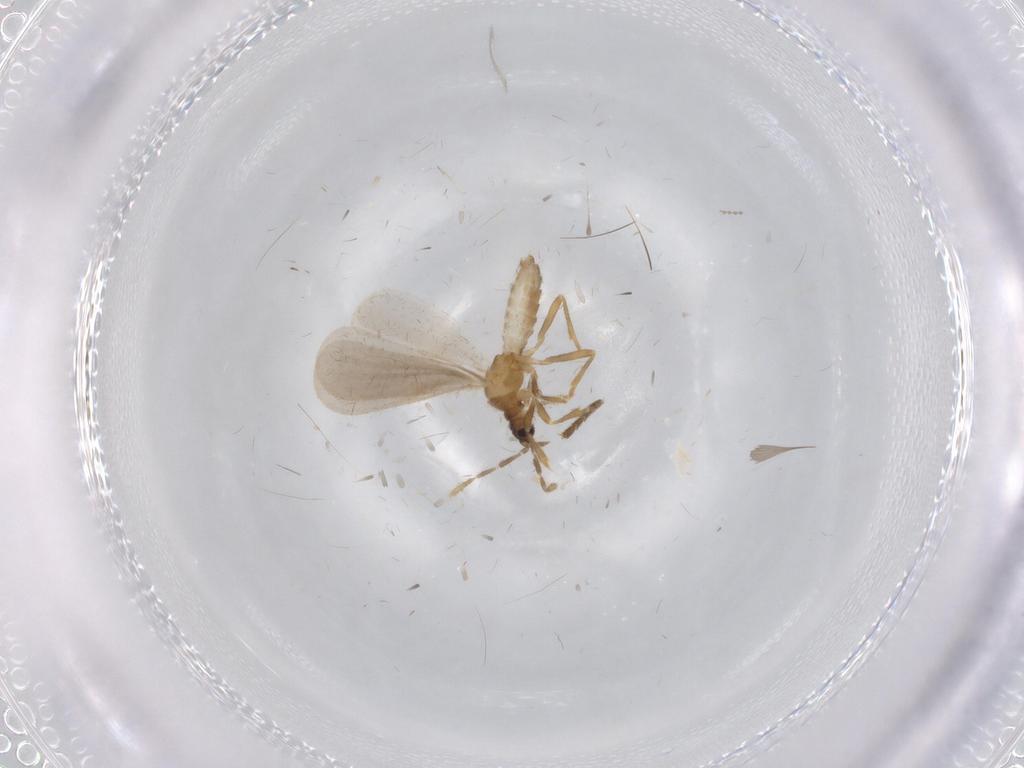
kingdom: Animalia
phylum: Arthropoda
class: Insecta
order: Hemiptera
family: Enicocephalidae
